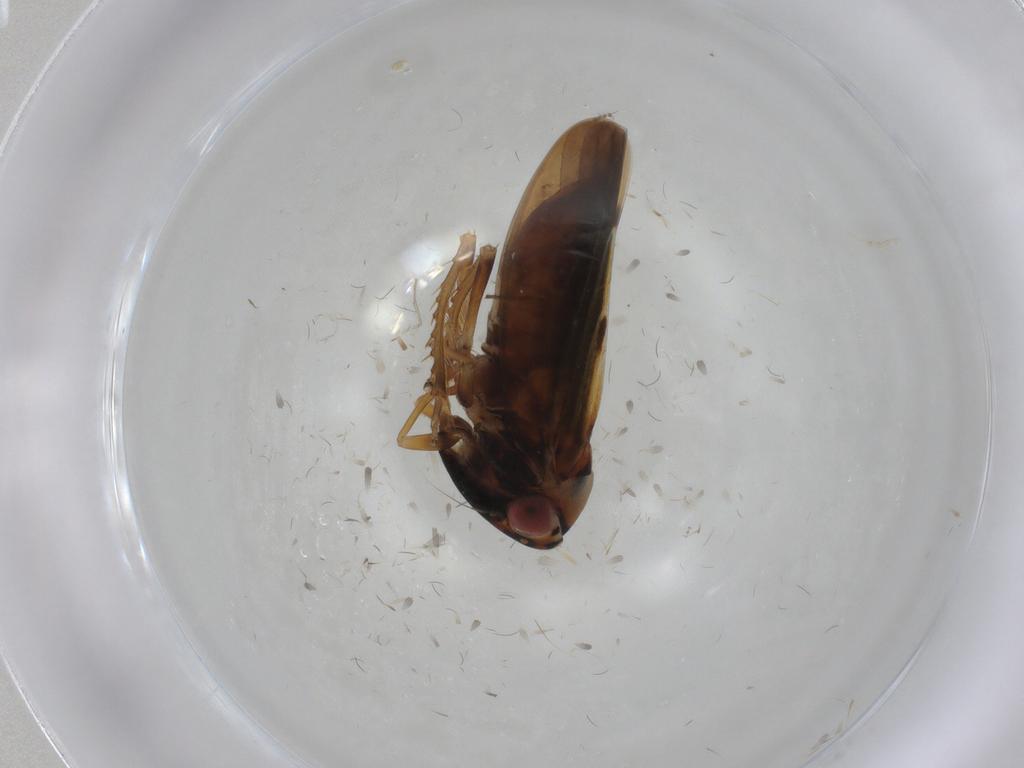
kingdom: Animalia
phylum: Arthropoda
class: Insecta
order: Hemiptera
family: Cicadellidae
